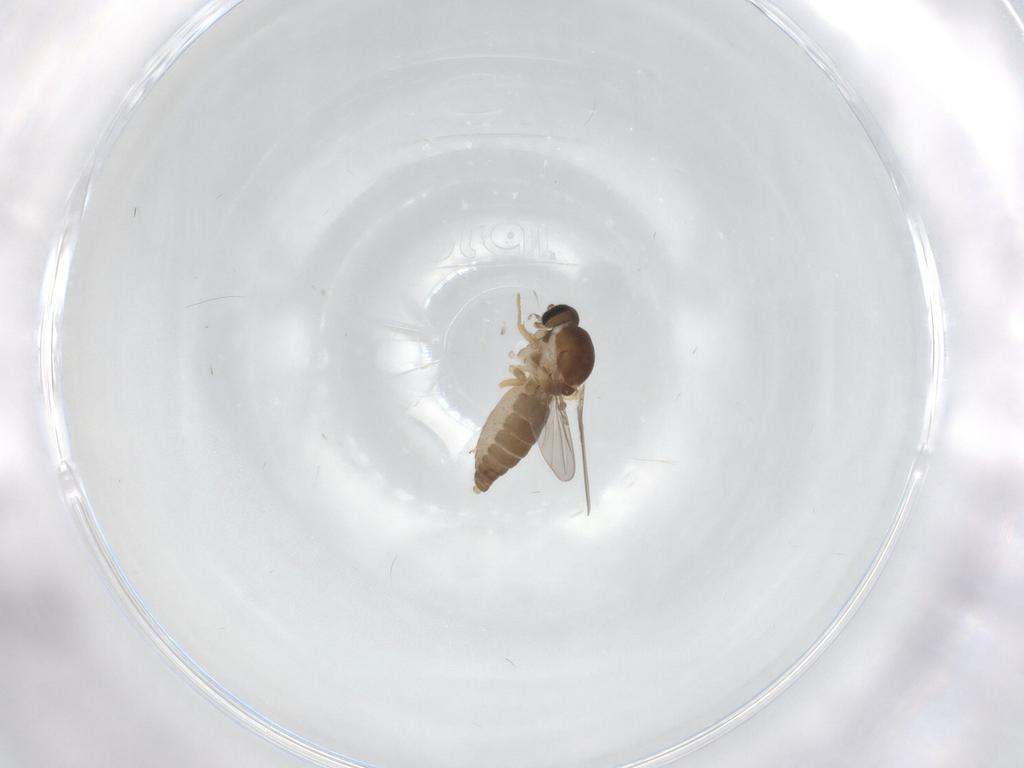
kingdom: Animalia
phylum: Arthropoda
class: Insecta
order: Diptera
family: Ceratopogonidae
